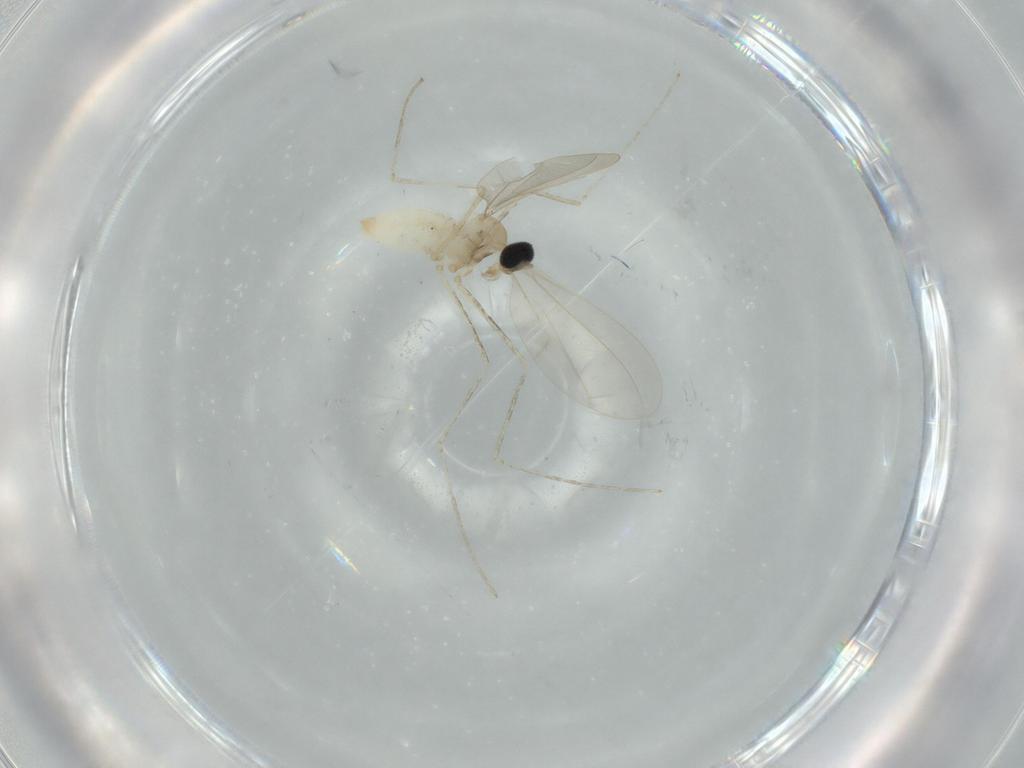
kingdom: Animalia
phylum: Arthropoda
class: Insecta
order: Diptera
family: Cecidomyiidae
